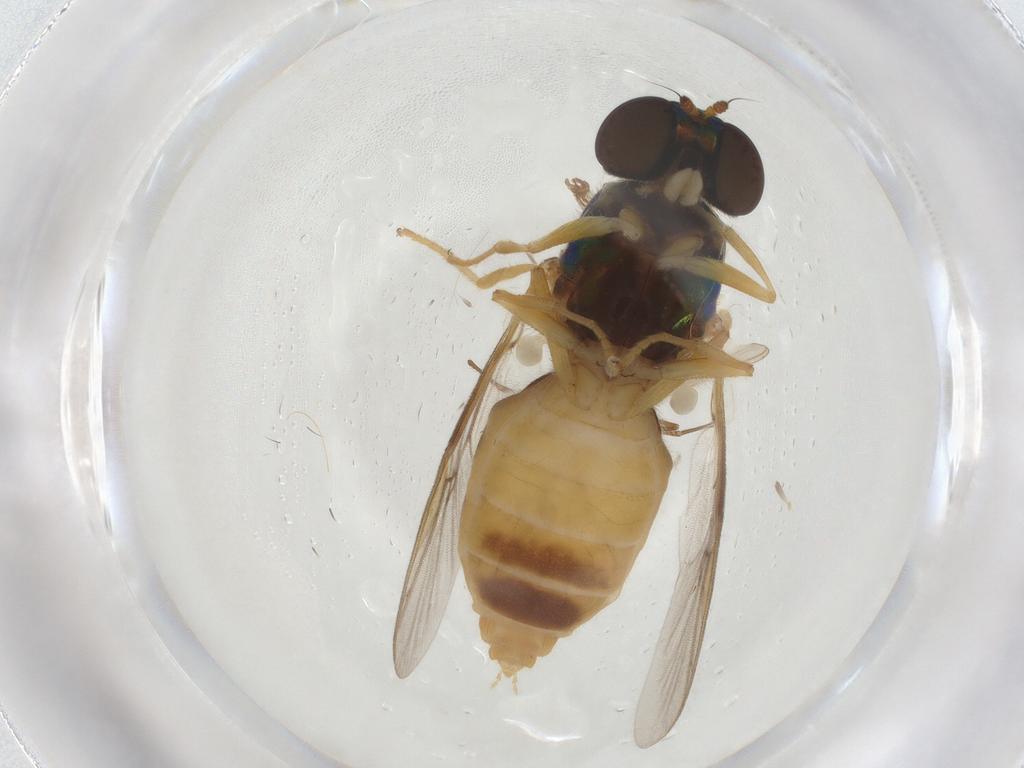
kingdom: Animalia
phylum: Arthropoda
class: Insecta
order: Diptera
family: Stratiomyidae
